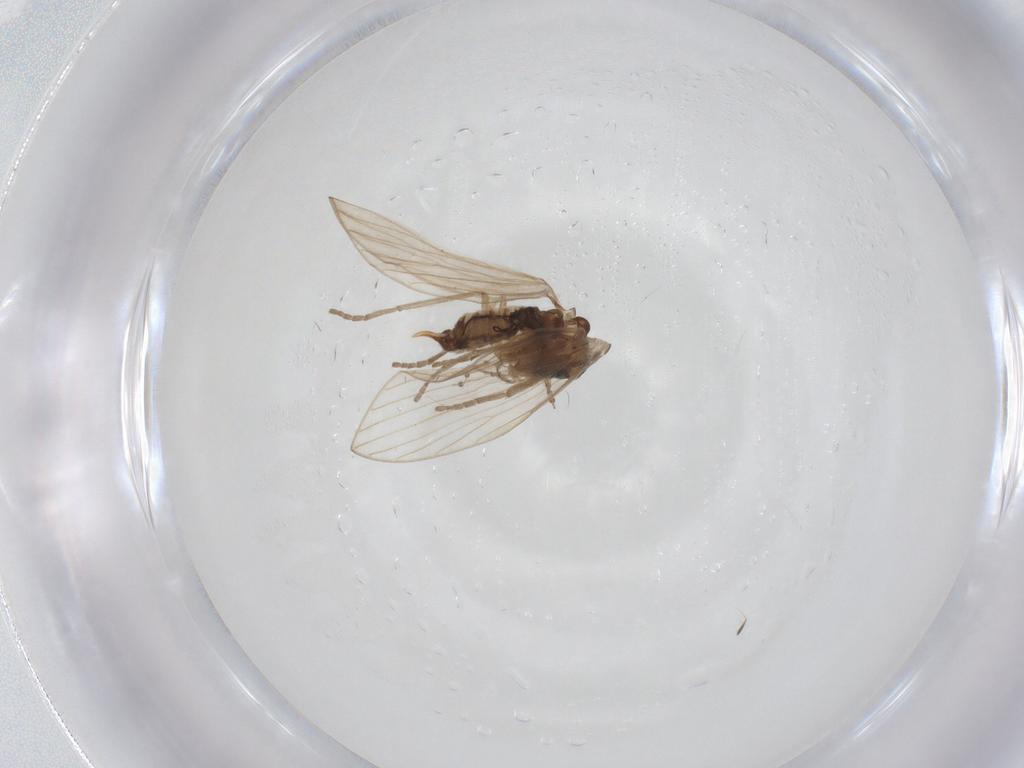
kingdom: Animalia
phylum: Arthropoda
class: Insecta
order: Diptera
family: Psychodidae
